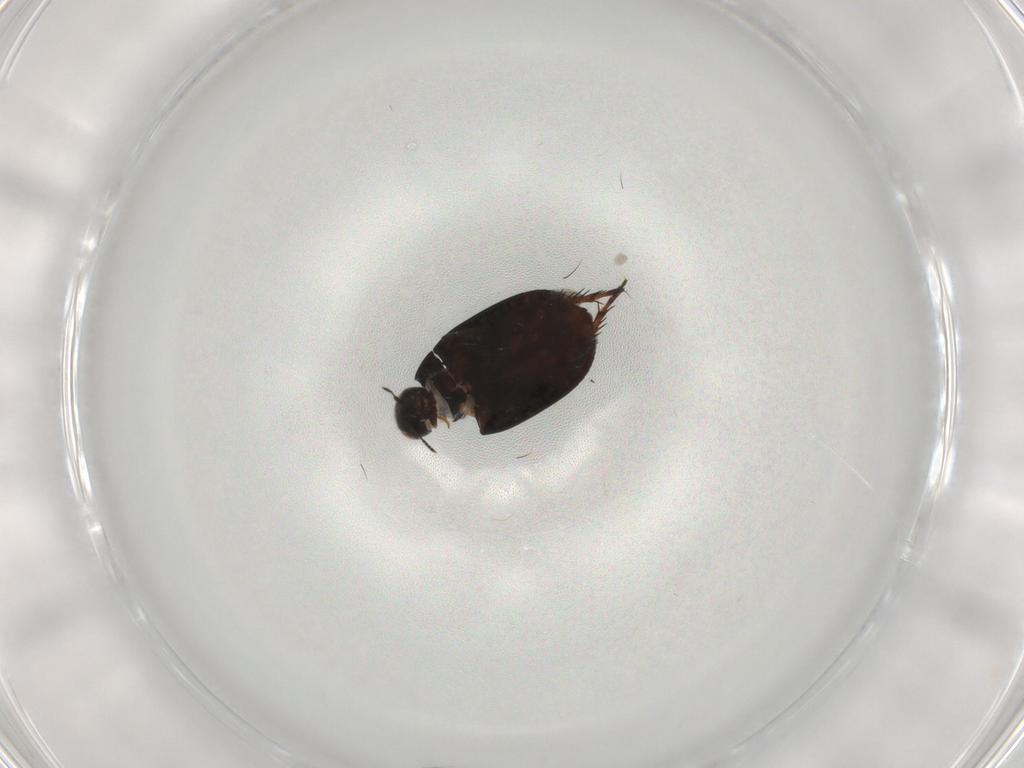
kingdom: Animalia
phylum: Arthropoda
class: Insecta
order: Coleoptera
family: Limnichidae
